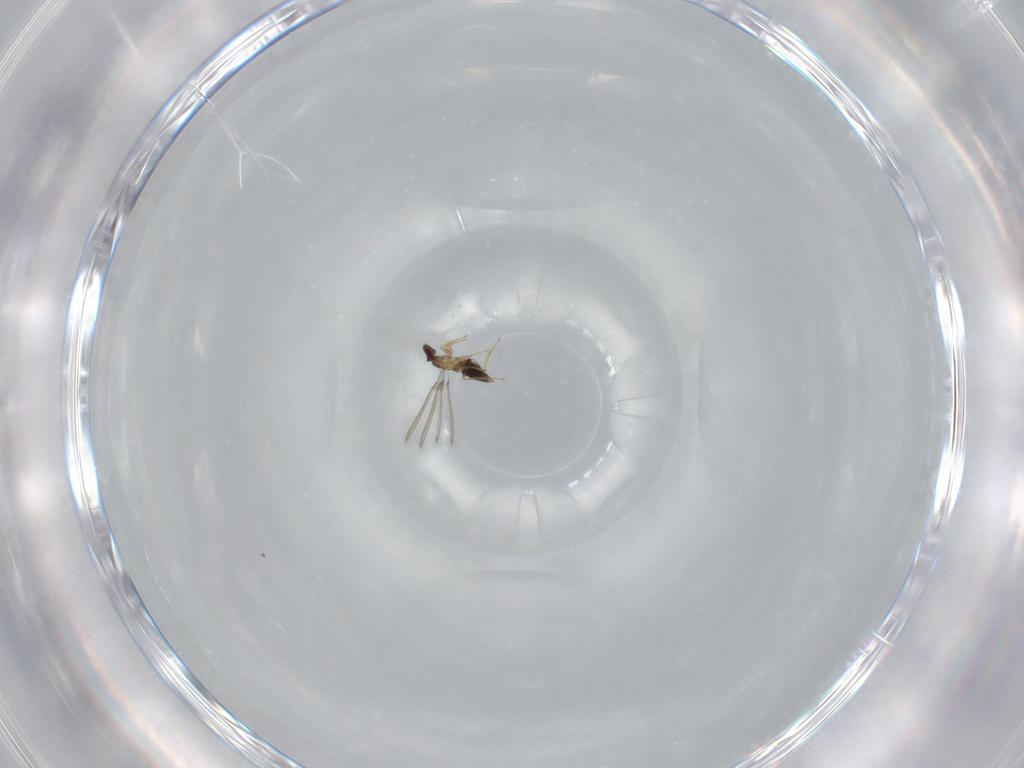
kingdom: Animalia
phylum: Arthropoda
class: Insecta
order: Hymenoptera
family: Mymaridae
